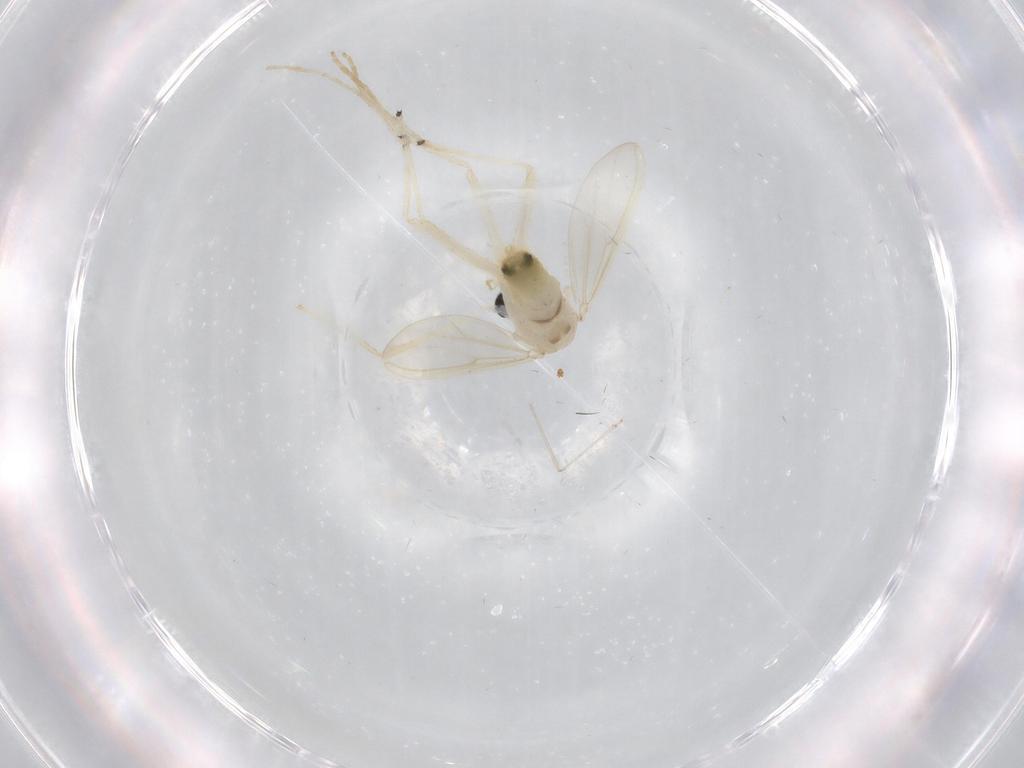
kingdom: Animalia
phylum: Arthropoda
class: Insecta
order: Diptera
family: Chironomidae
